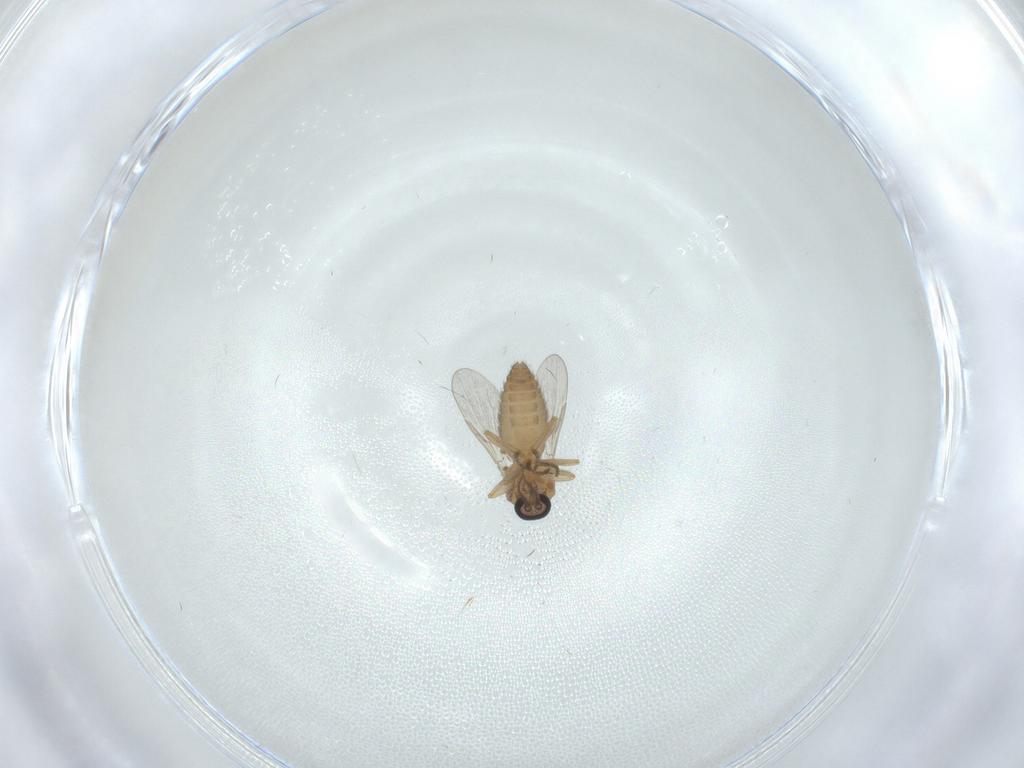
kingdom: Animalia
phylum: Arthropoda
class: Insecta
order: Diptera
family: Ceratopogonidae
